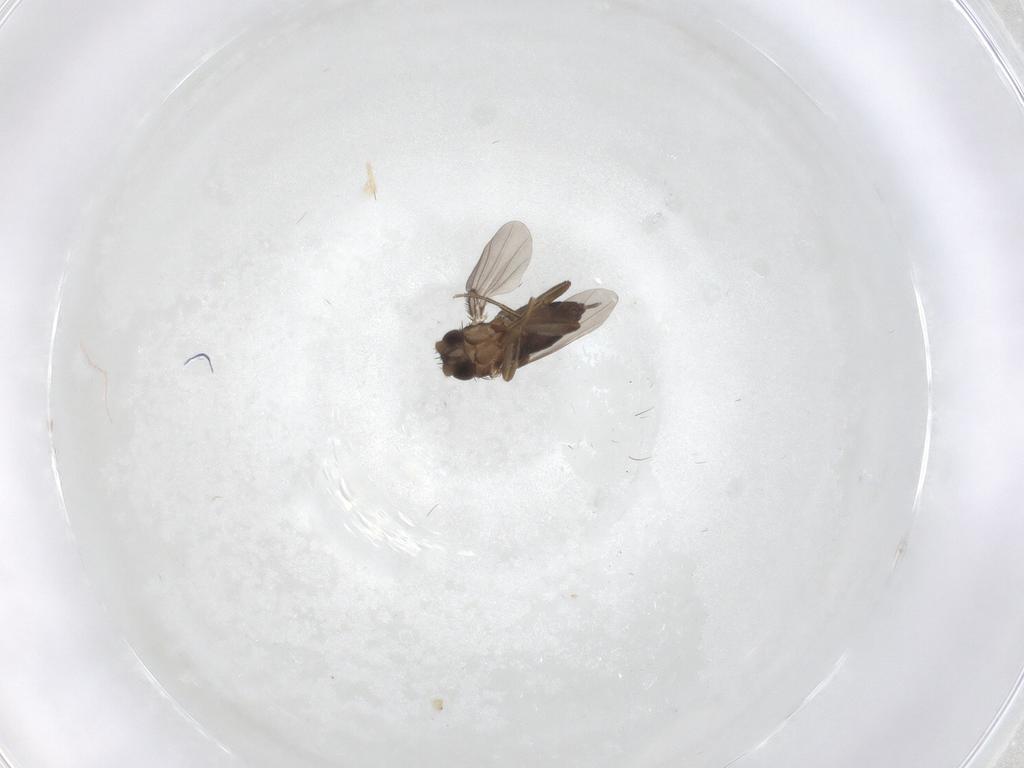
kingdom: Animalia
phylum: Arthropoda
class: Insecta
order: Diptera
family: Phoridae
